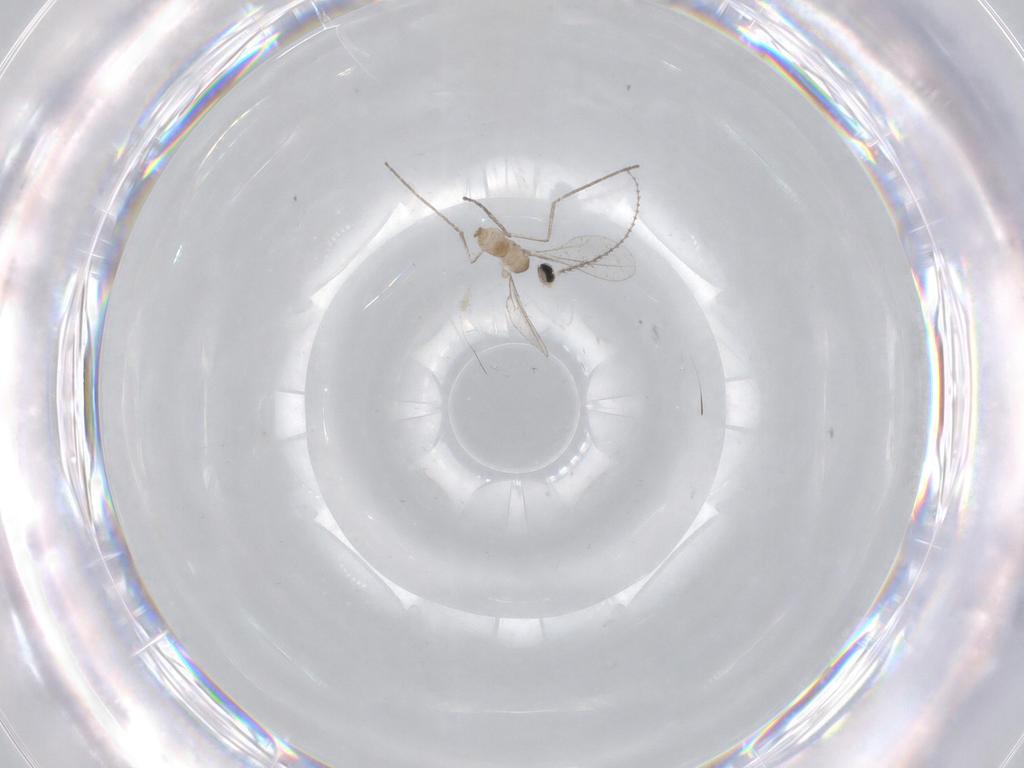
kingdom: Animalia
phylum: Arthropoda
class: Insecta
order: Diptera
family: Cecidomyiidae
